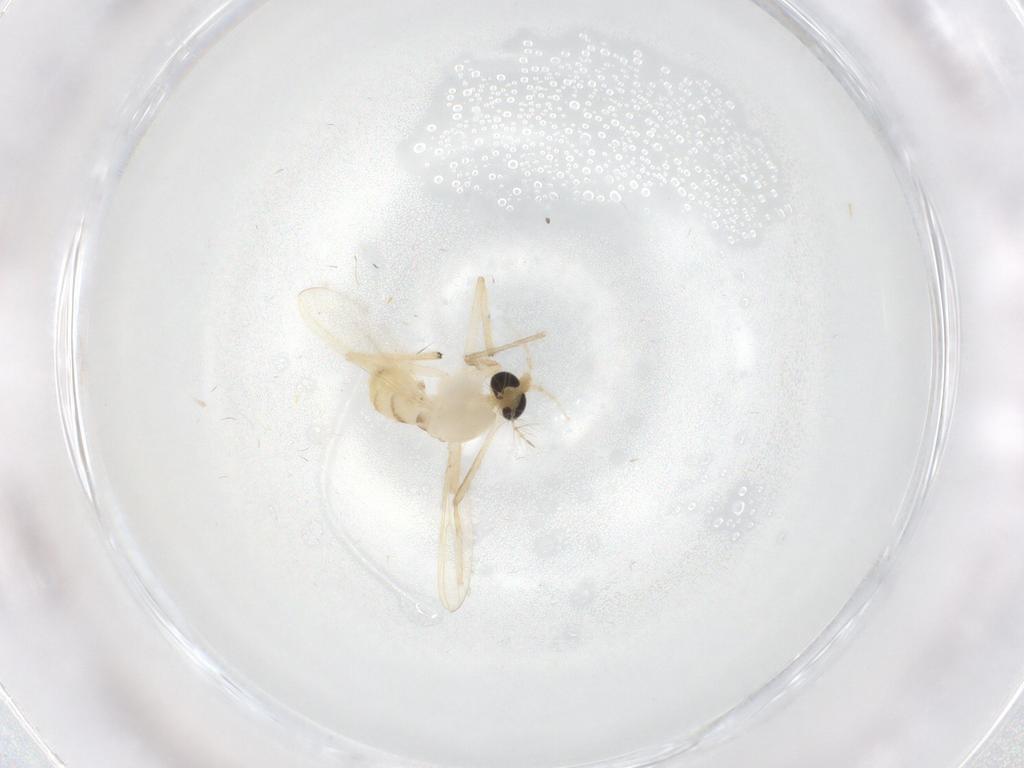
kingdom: Animalia
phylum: Arthropoda
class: Insecta
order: Diptera
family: Chironomidae
